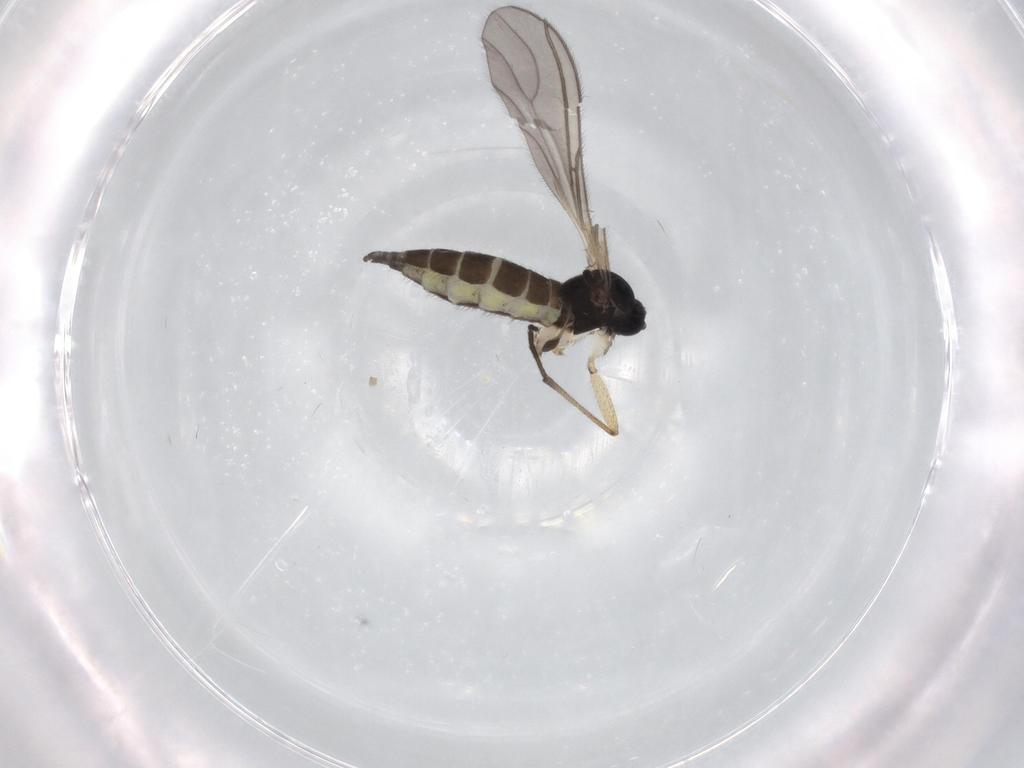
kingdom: Animalia
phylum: Arthropoda
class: Insecta
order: Diptera
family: Sciaridae
